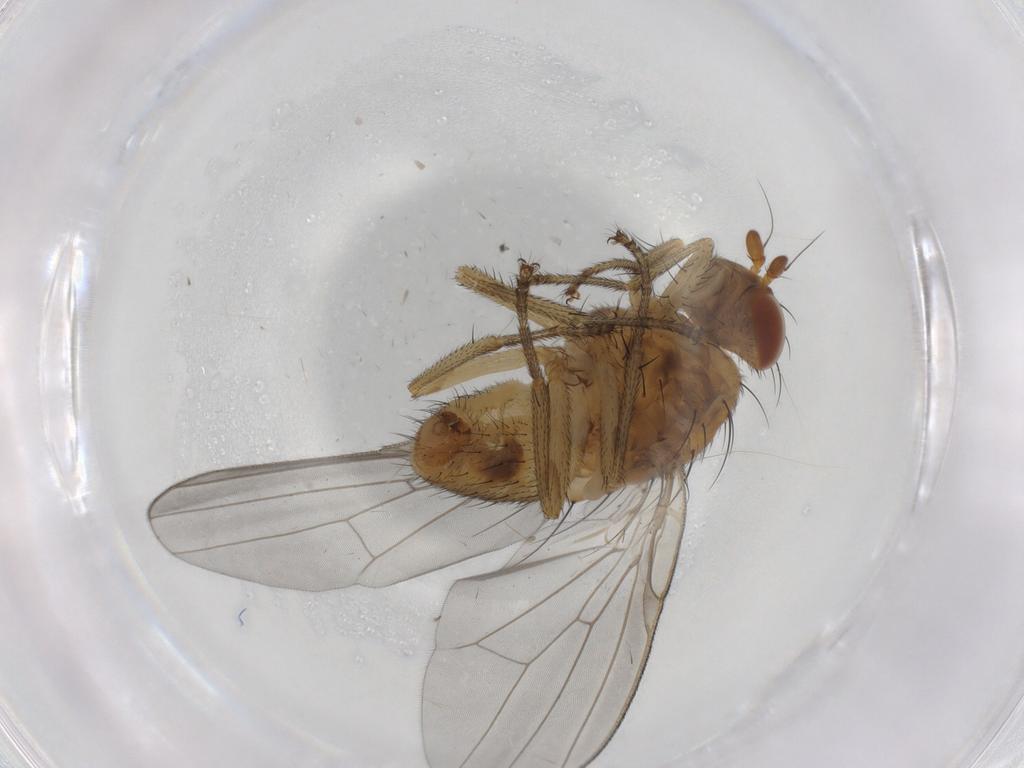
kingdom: Animalia
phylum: Arthropoda
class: Insecta
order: Diptera
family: Lauxaniidae
